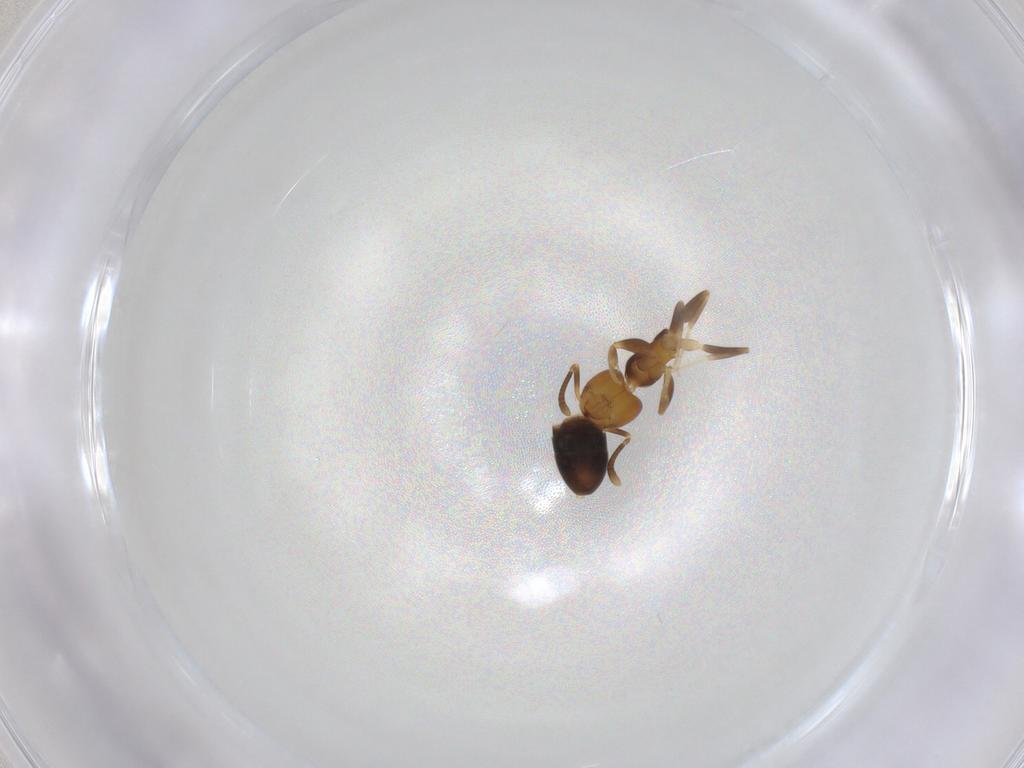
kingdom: Animalia
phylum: Arthropoda
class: Insecta
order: Hymenoptera
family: Formicidae
